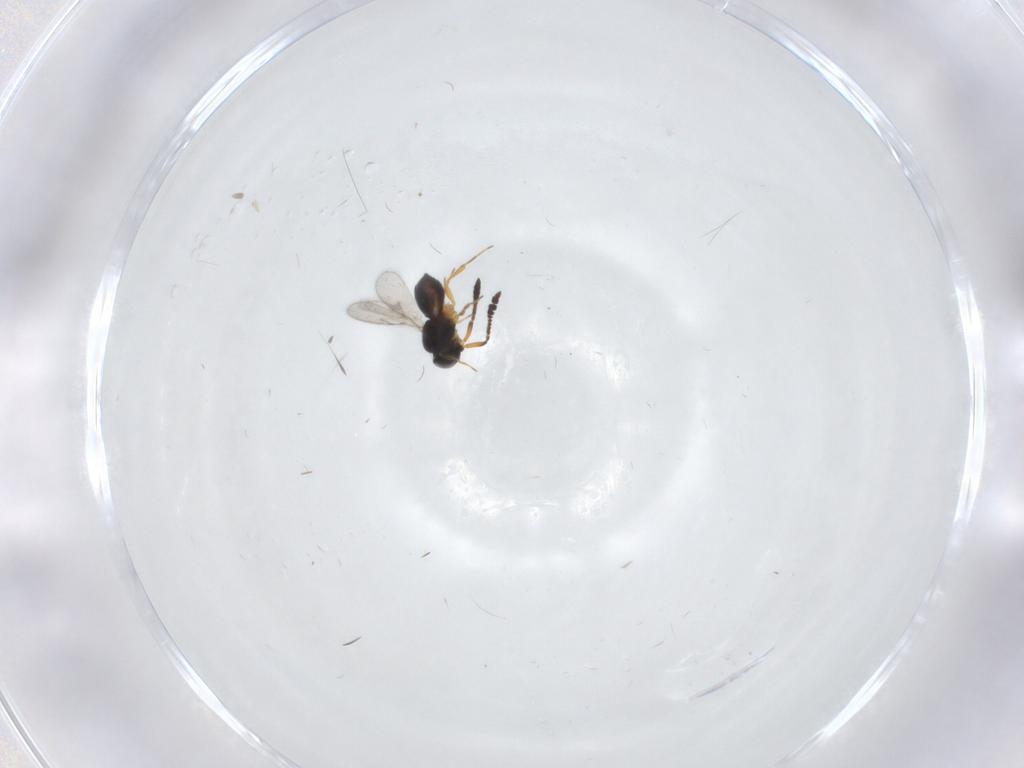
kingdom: Animalia
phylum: Arthropoda
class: Insecta
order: Hymenoptera
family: Scelionidae
